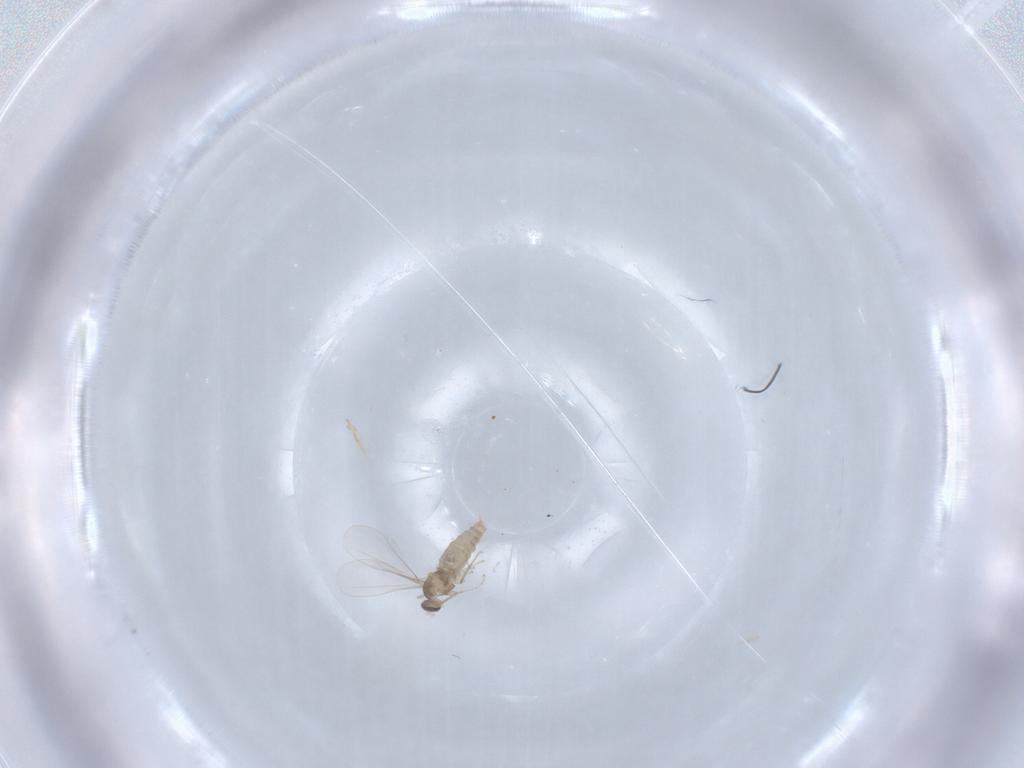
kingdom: Animalia
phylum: Arthropoda
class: Insecta
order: Diptera
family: Cecidomyiidae
